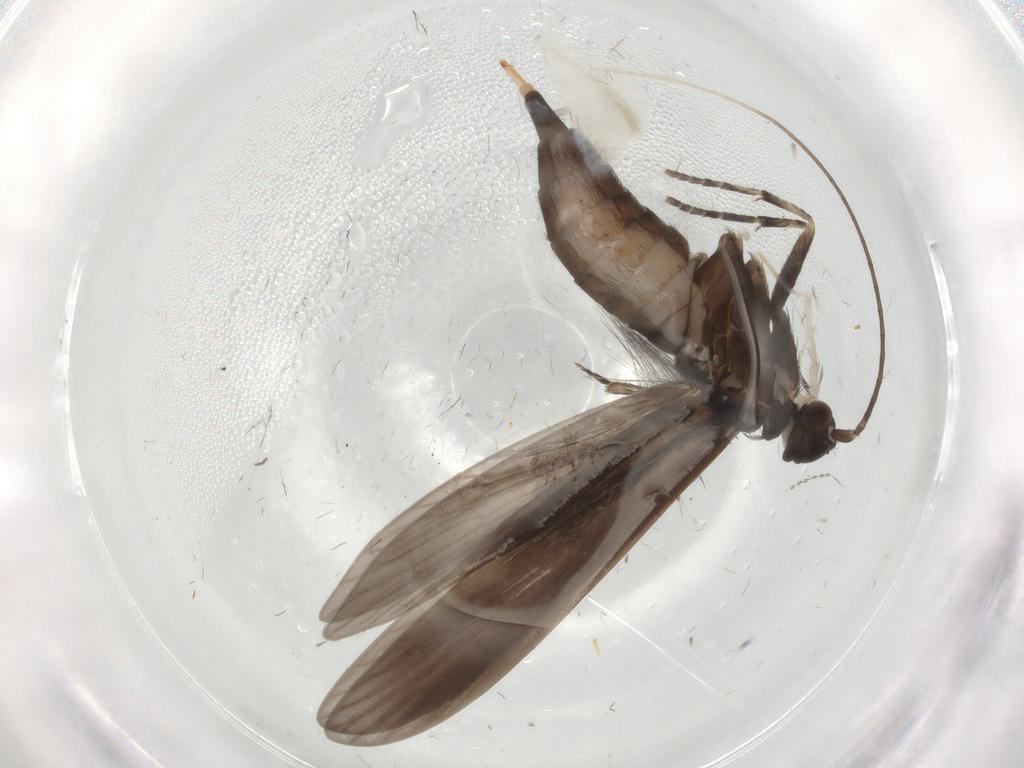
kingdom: Animalia
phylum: Arthropoda
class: Insecta
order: Trichoptera
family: Xiphocentronidae
